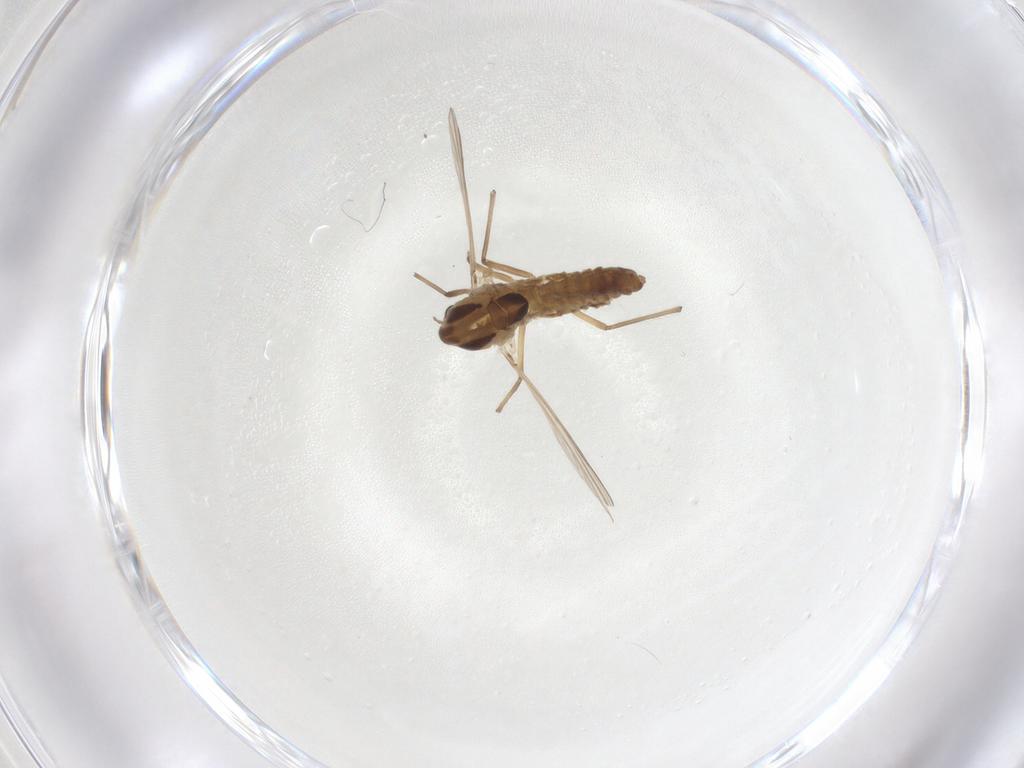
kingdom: Animalia
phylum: Arthropoda
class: Insecta
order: Diptera
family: Chironomidae
